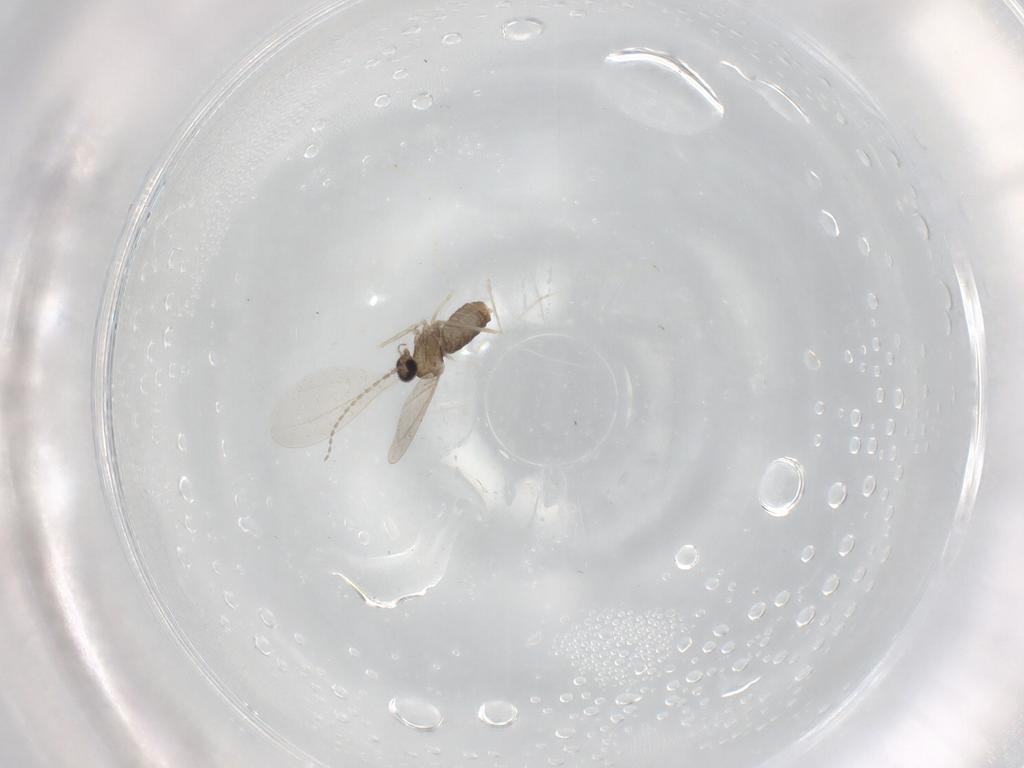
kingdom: Animalia
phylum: Arthropoda
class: Insecta
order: Diptera
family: Cecidomyiidae
